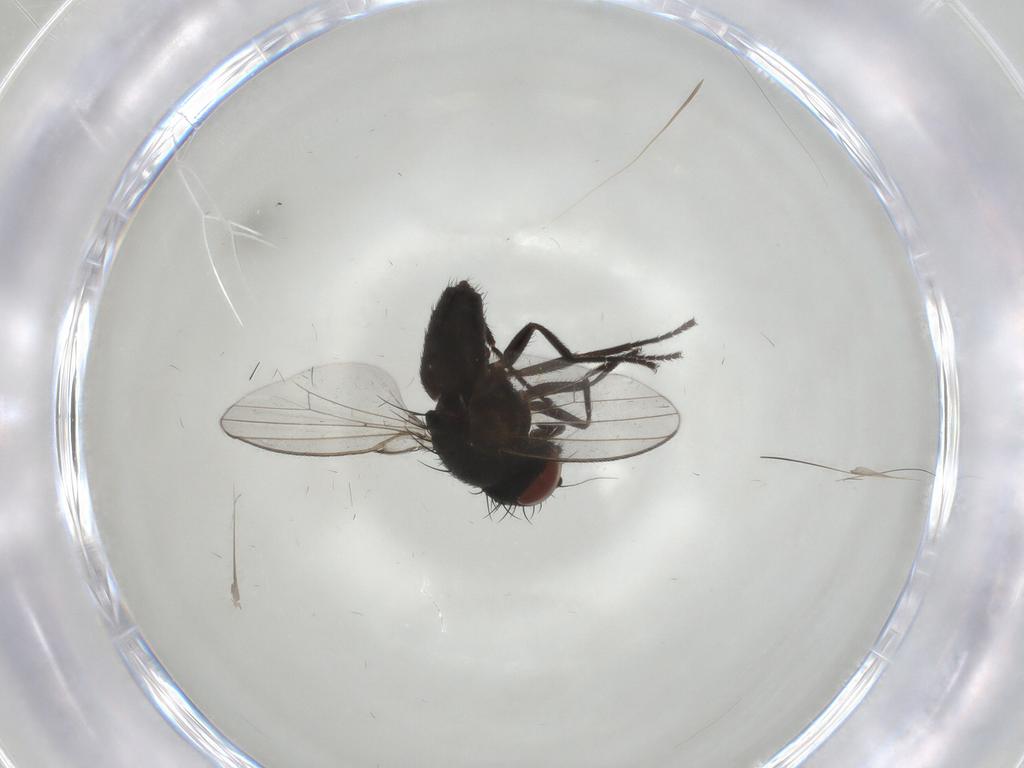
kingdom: Animalia
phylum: Arthropoda
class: Insecta
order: Diptera
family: Milichiidae
